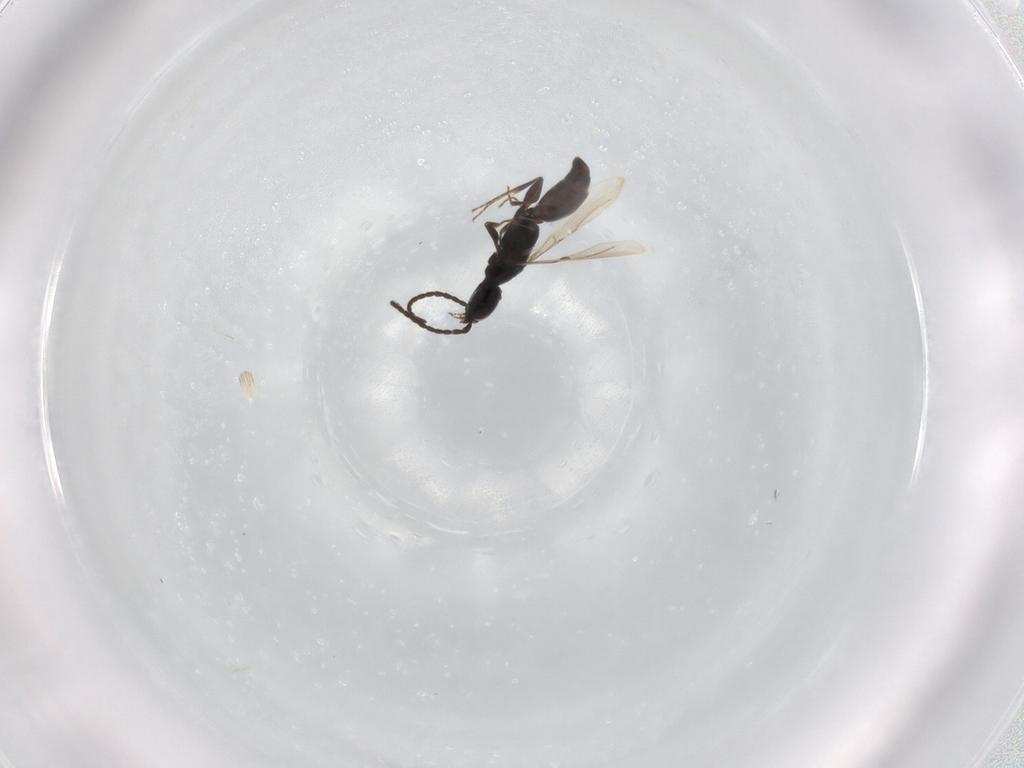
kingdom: Animalia
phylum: Arthropoda
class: Insecta
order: Hymenoptera
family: Bethylidae
